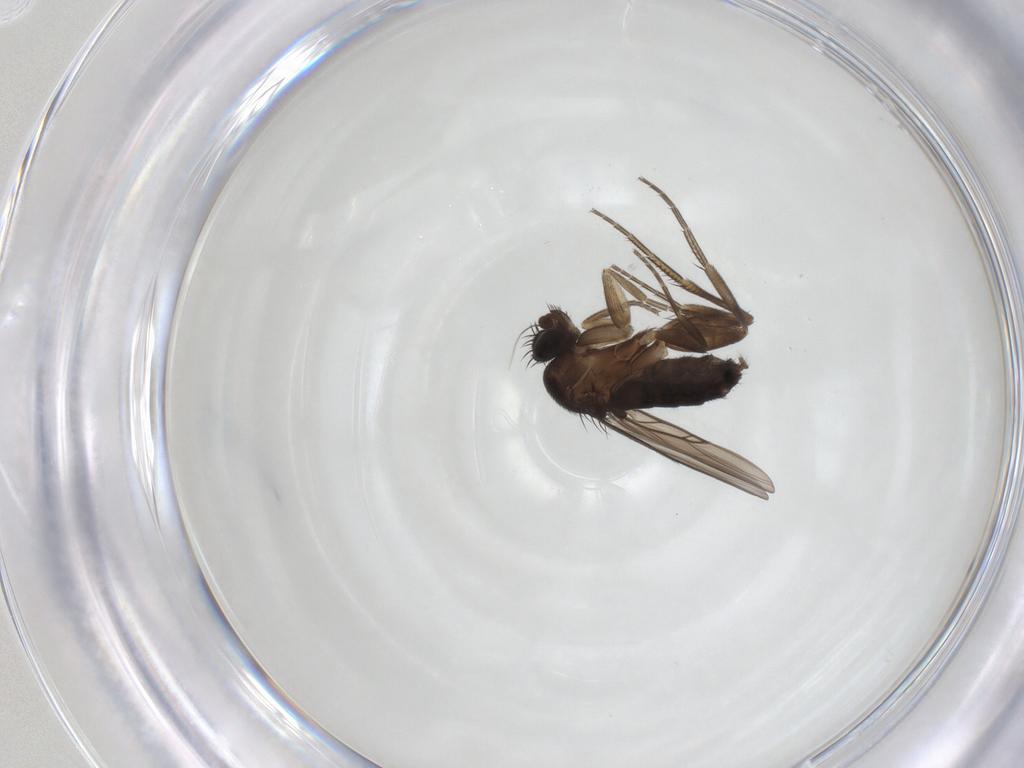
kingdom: Animalia
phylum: Arthropoda
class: Insecta
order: Diptera
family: Phoridae
